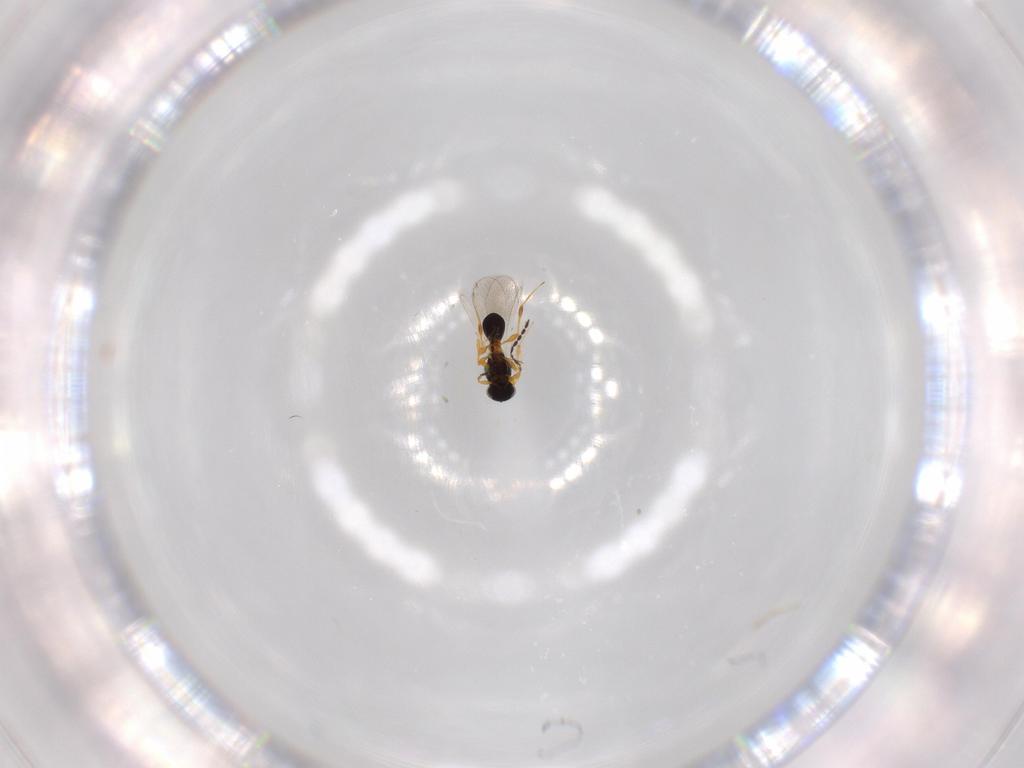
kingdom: Animalia
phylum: Arthropoda
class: Insecta
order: Hymenoptera
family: Platygastridae
